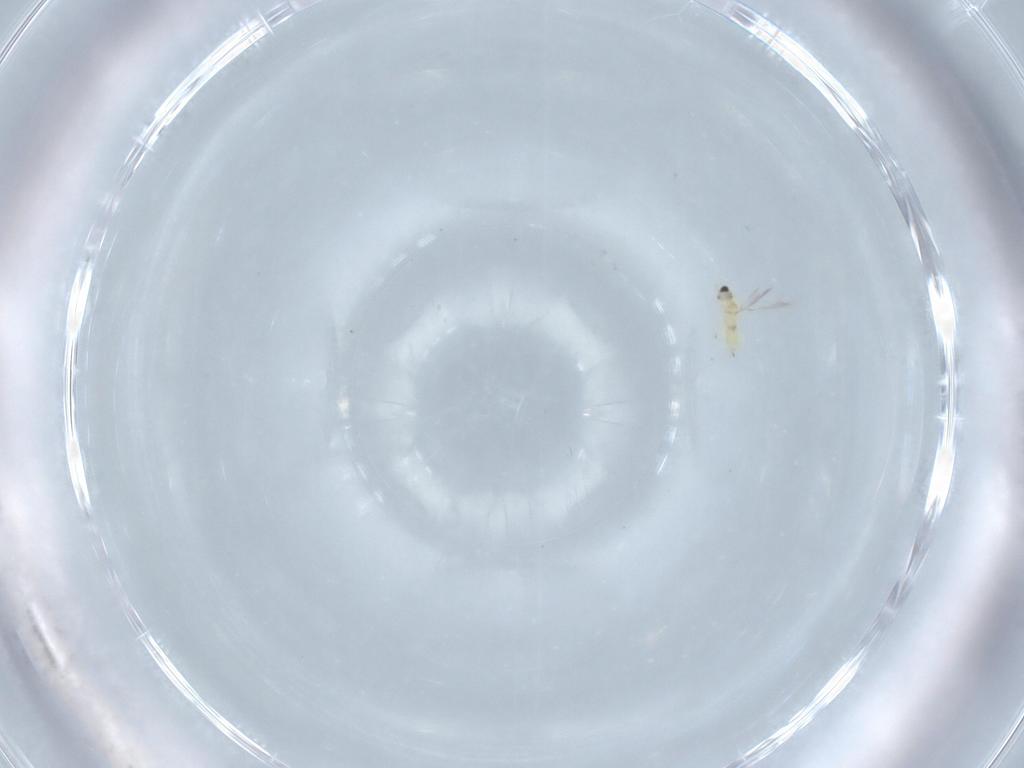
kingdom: Animalia
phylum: Arthropoda
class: Insecta
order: Hymenoptera
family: Mymaridae
